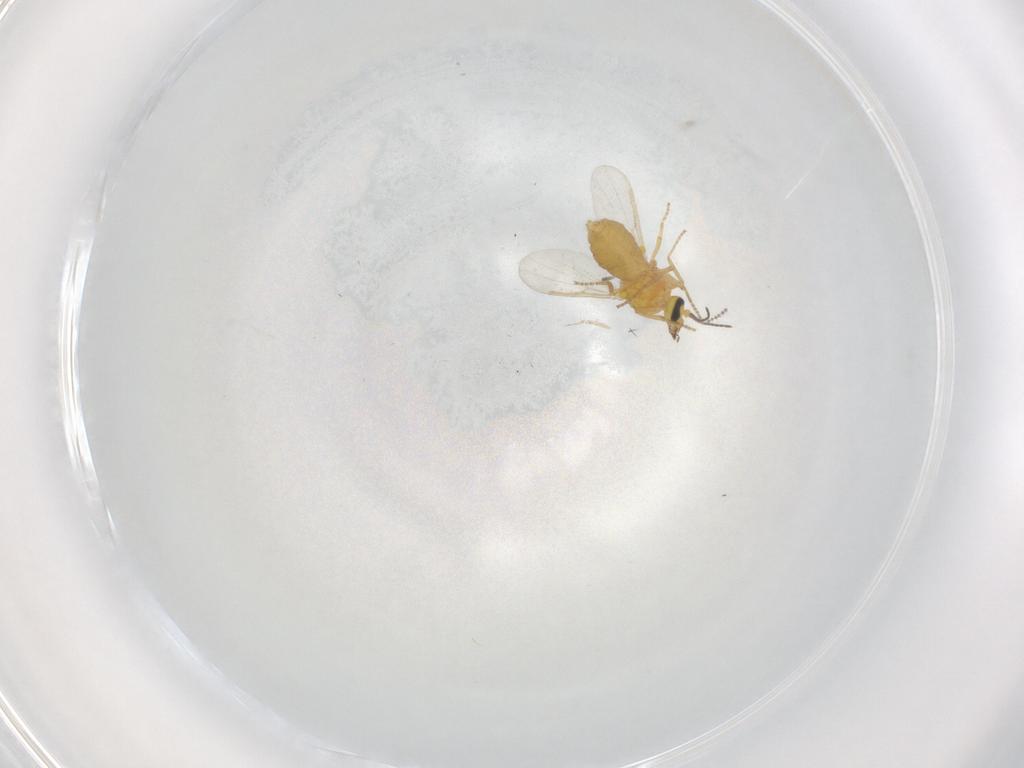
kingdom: Animalia
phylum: Arthropoda
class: Insecta
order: Diptera
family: Ceratopogonidae
